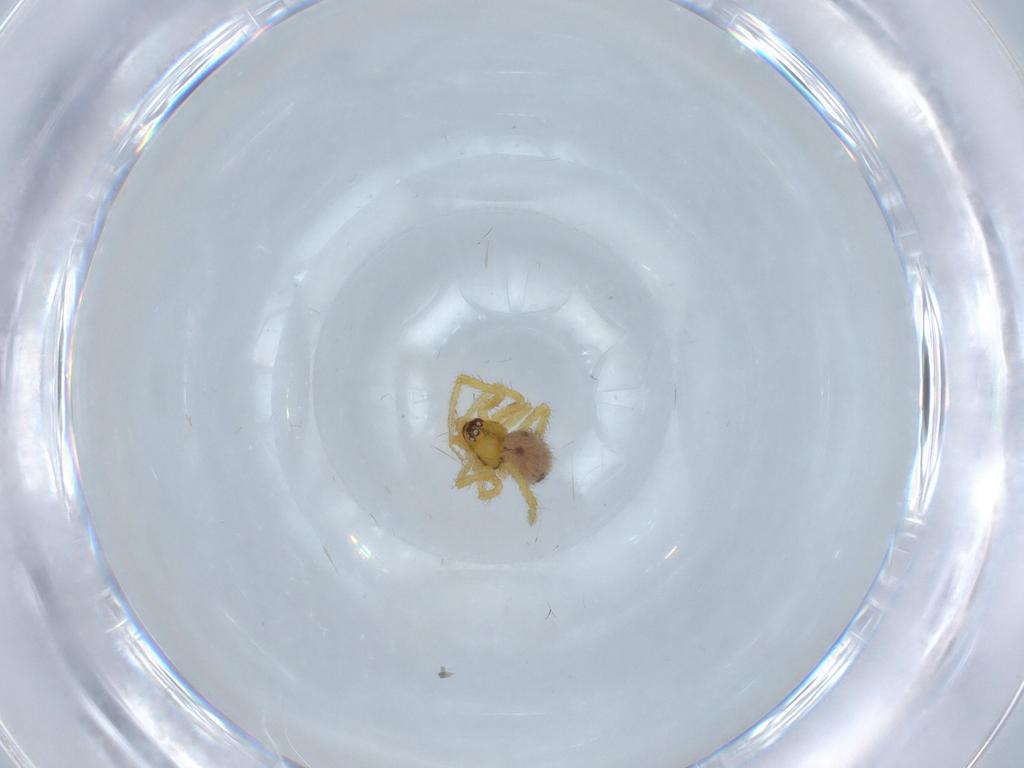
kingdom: Animalia
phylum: Arthropoda
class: Arachnida
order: Araneae
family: Theridiidae
